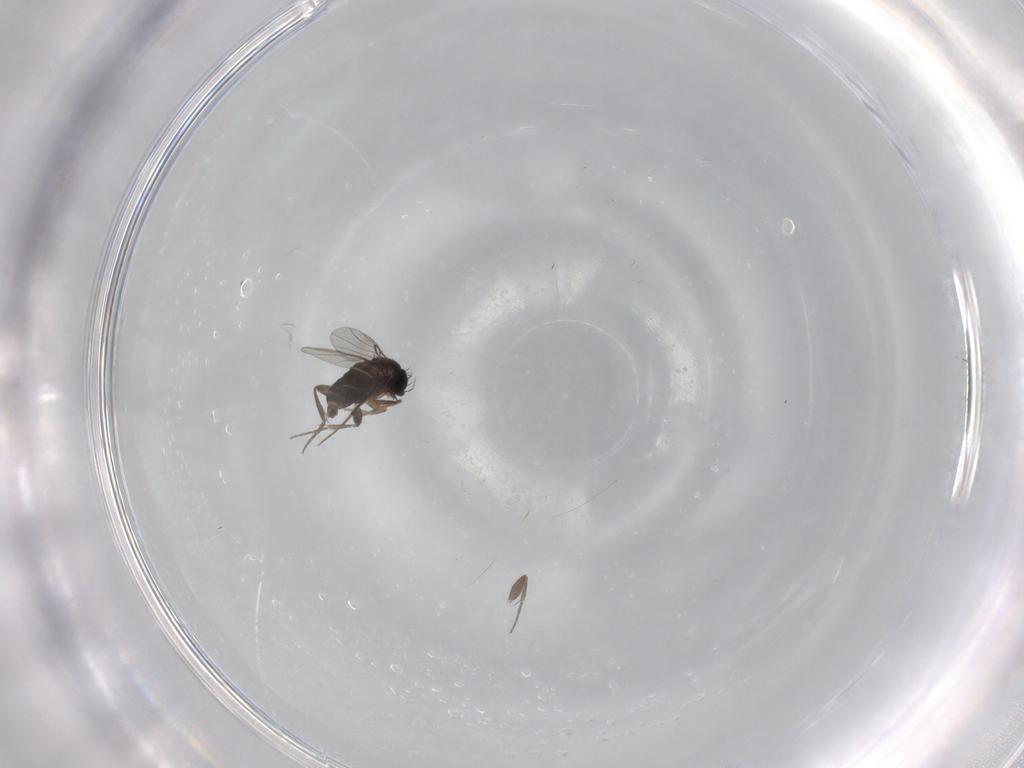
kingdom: Animalia
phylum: Arthropoda
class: Insecta
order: Diptera
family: Phoridae
